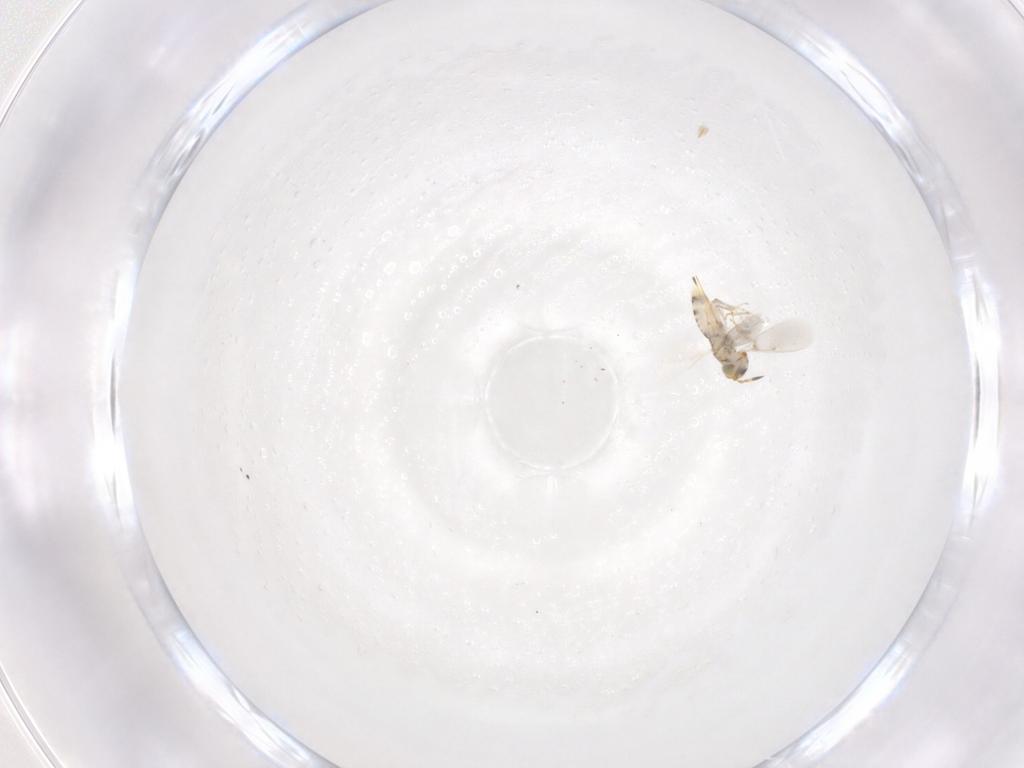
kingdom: Animalia
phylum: Arthropoda
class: Insecta
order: Hymenoptera
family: Aphelinidae
